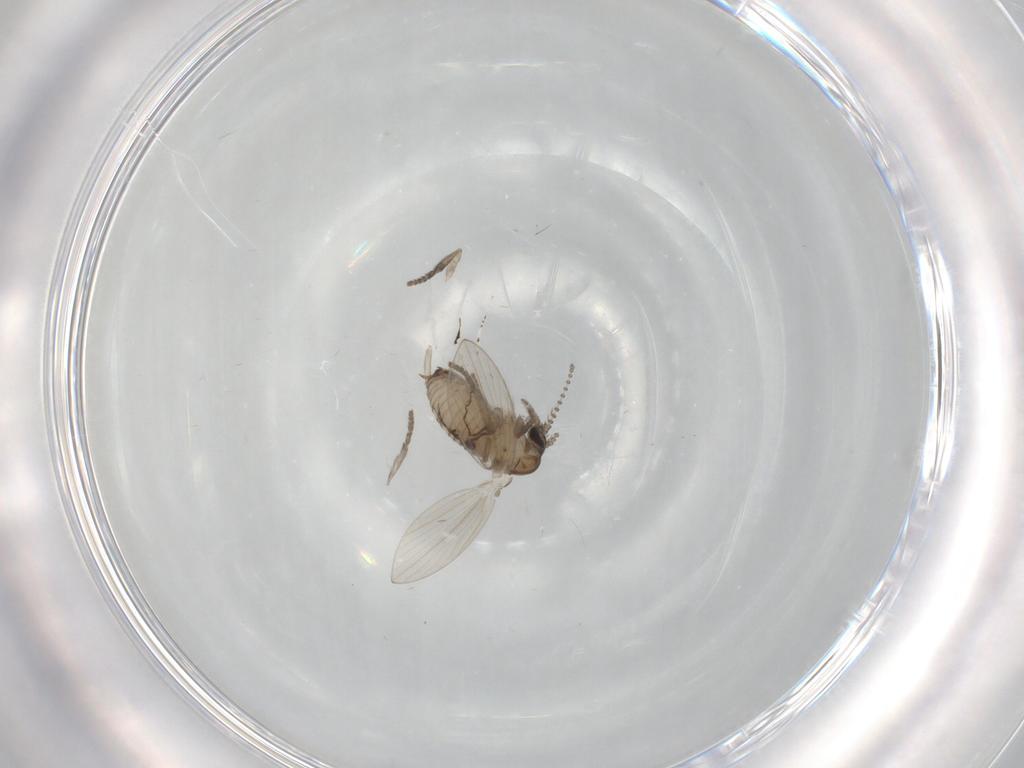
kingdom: Animalia
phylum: Arthropoda
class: Insecta
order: Diptera
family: Psychodidae
